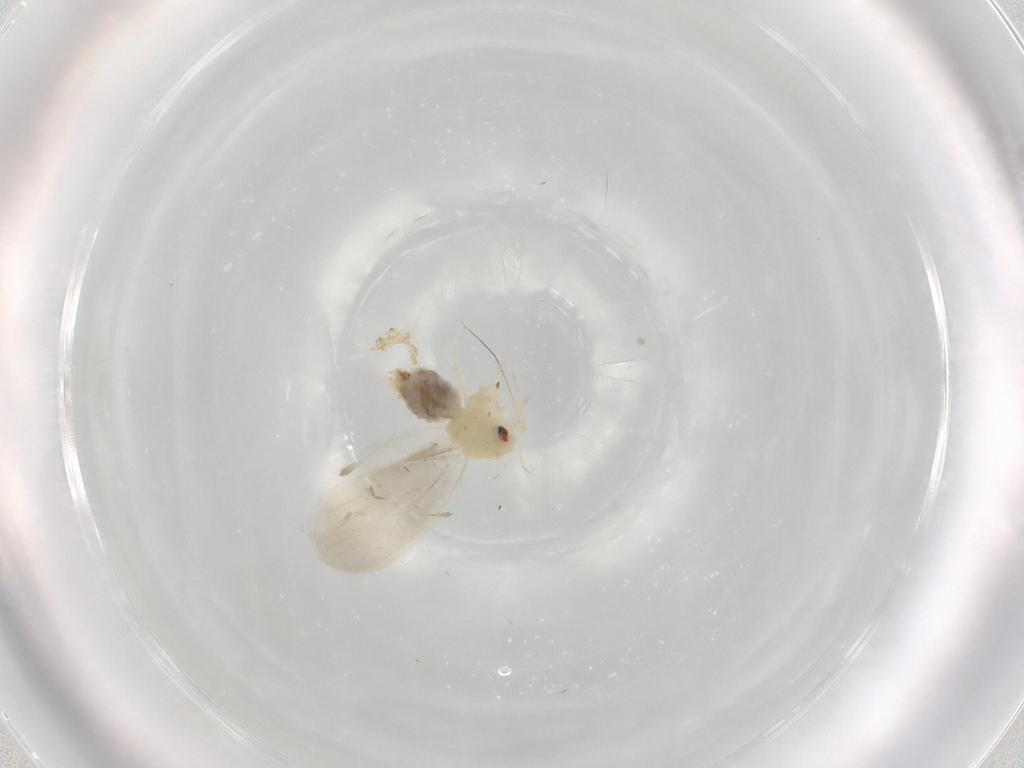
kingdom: Animalia
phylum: Arthropoda
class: Insecta
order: Hemiptera
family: Aleyrodidae
